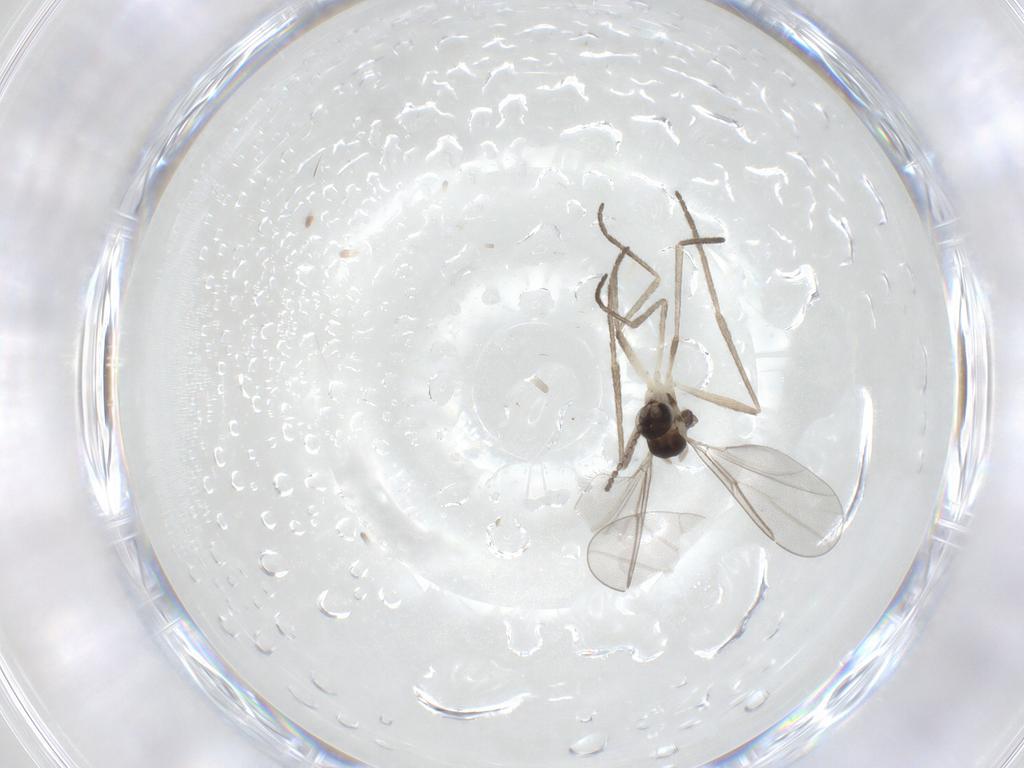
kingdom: Animalia
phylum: Arthropoda
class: Insecta
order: Diptera
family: Cecidomyiidae
